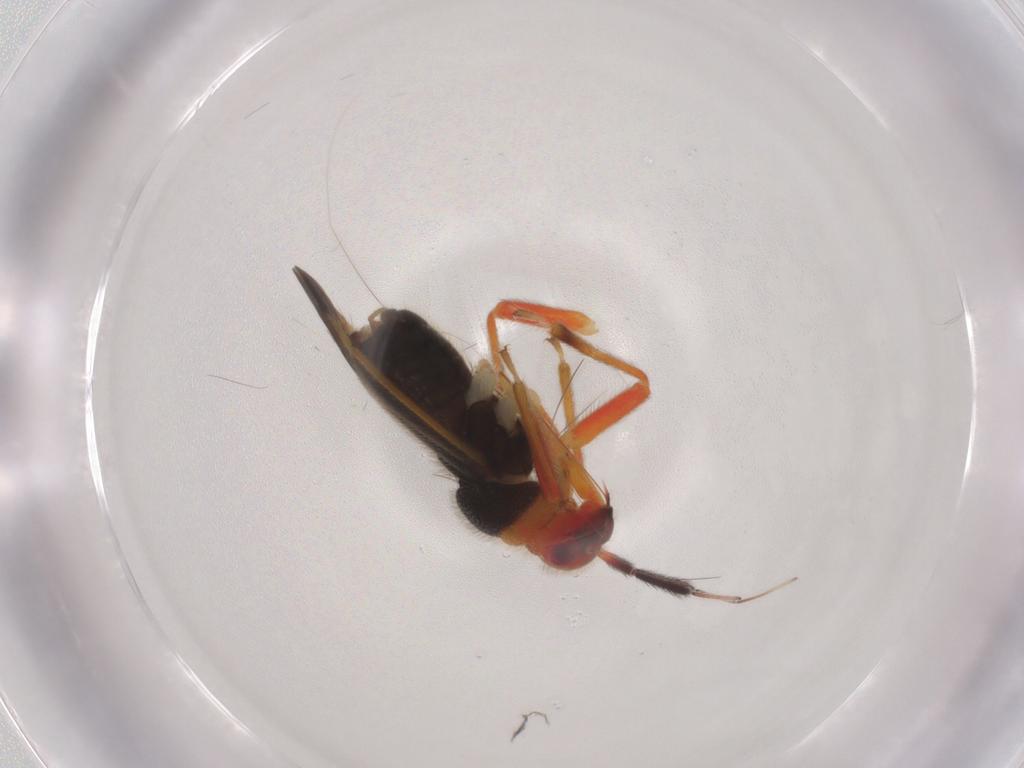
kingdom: Animalia
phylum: Arthropoda
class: Insecta
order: Hemiptera
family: Miridae
